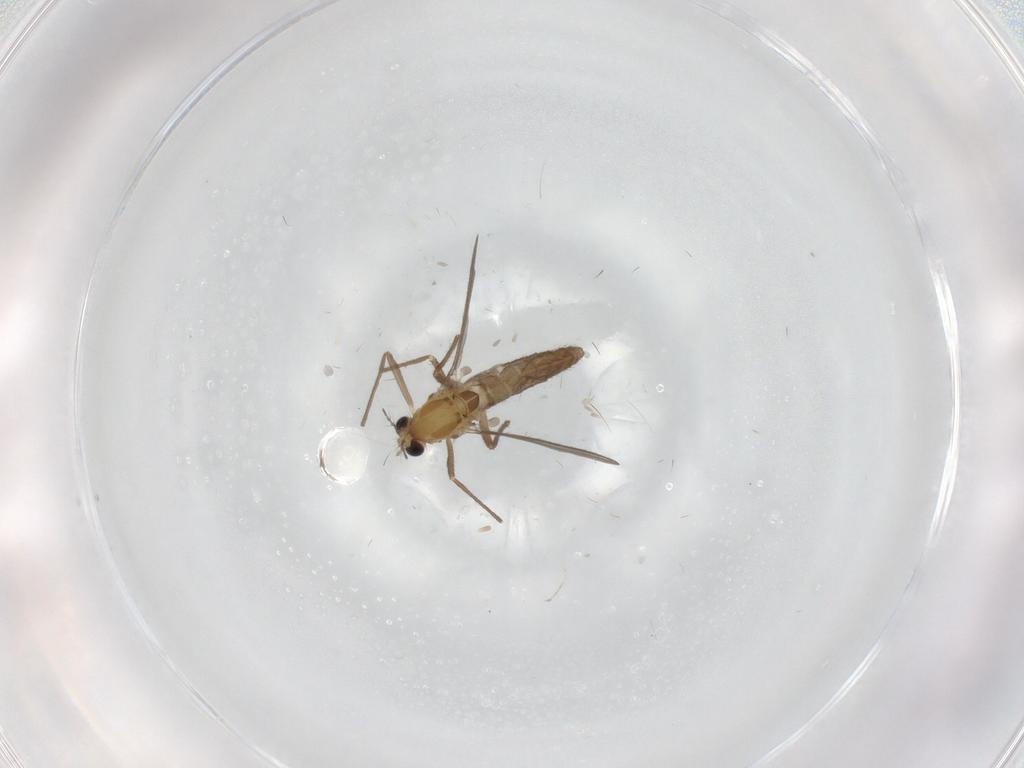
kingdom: Animalia
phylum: Arthropoda
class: Insecta
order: Diptera
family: Chironomidae
